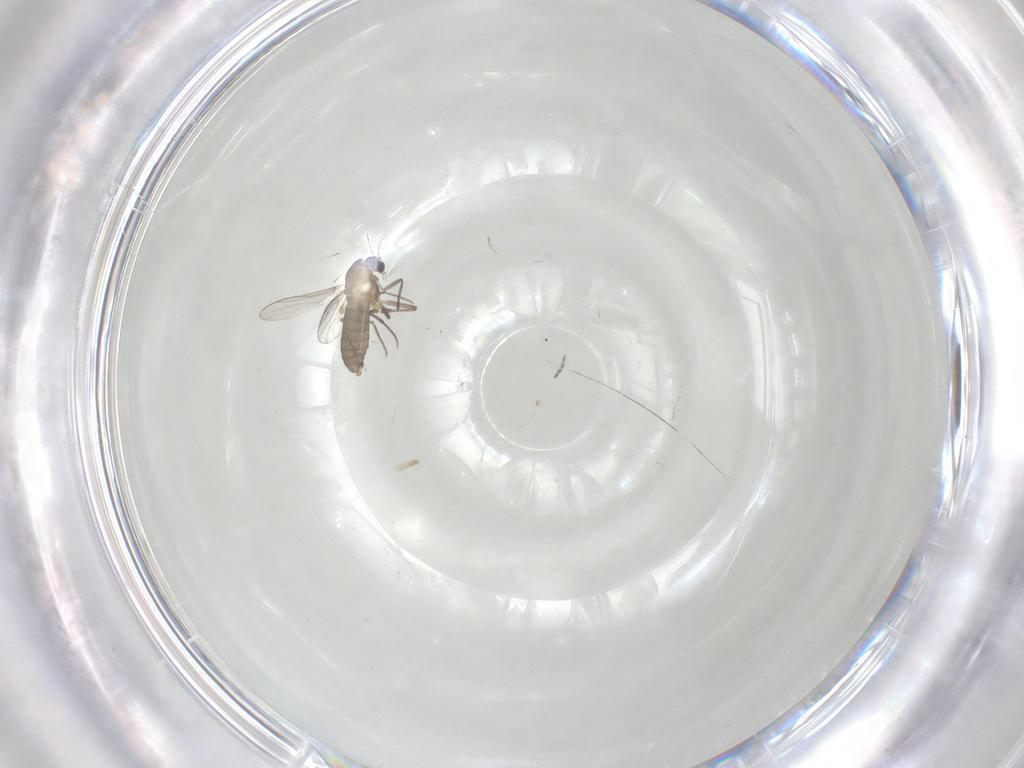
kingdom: Animalia
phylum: Arthropoda
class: Insecta
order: Diptera
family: Chironomidae
